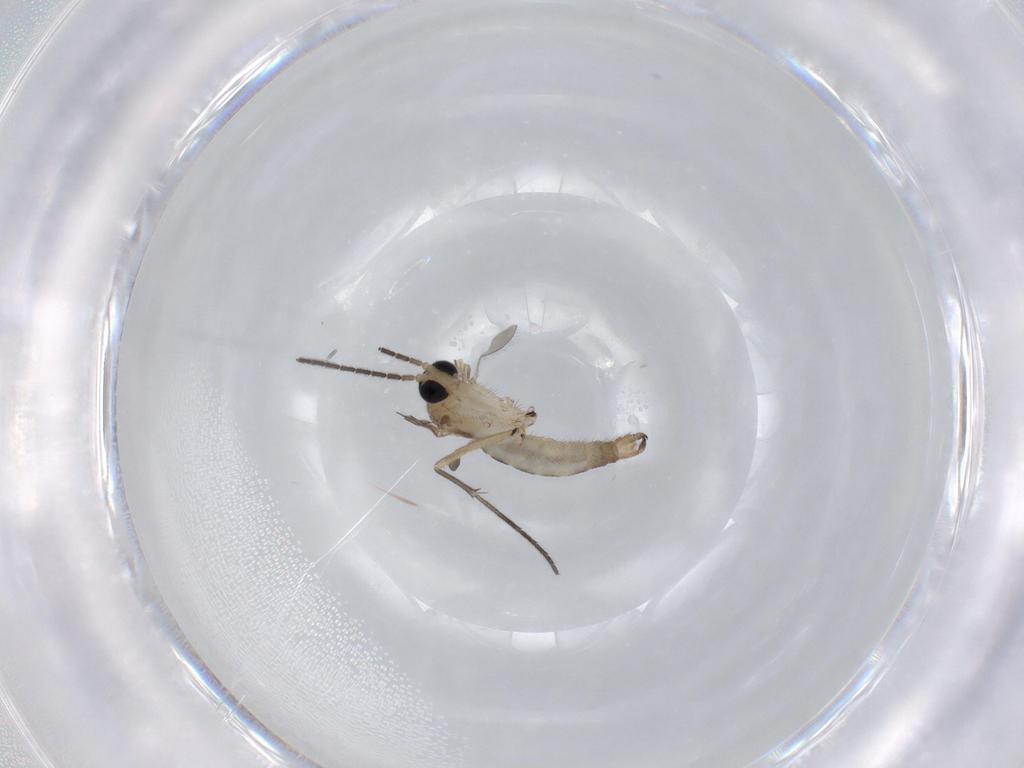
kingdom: Animalia
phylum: Arthropoda
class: Insecta
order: Diptera
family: Sciaridae
